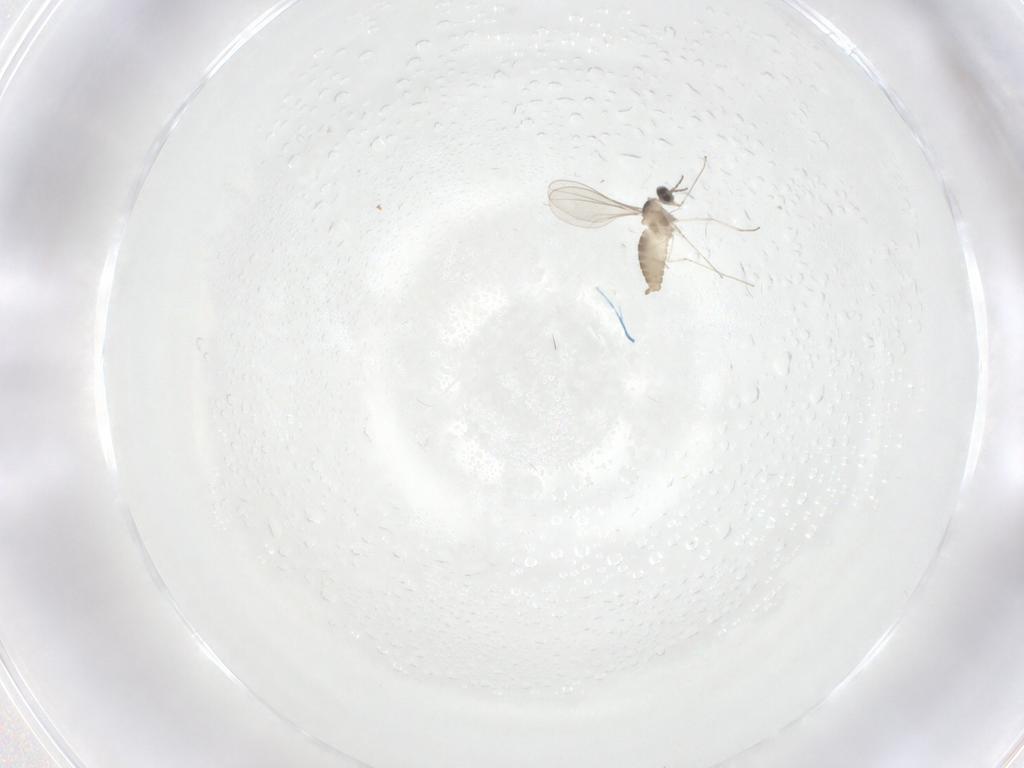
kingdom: Animalia
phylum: Arthropoda
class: Insecta
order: Diptera
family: Cecidomyiidae
